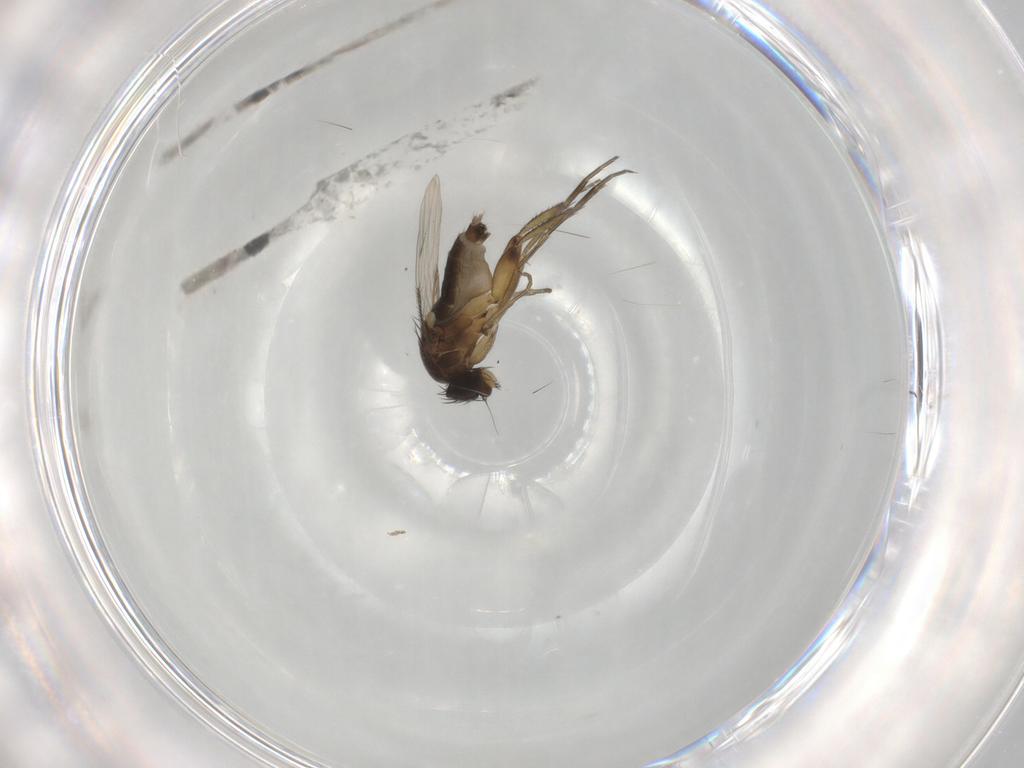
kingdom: Animalia
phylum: Arthropoda
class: Insecta
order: Diptera
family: Phoridae
